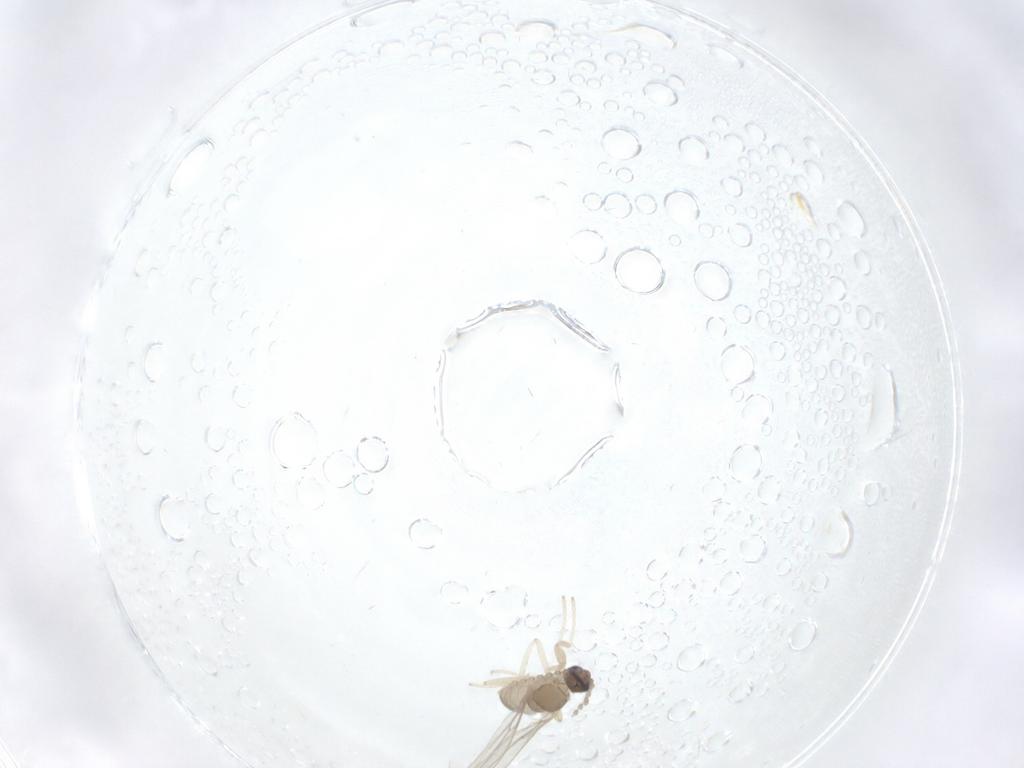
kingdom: Animalia
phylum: Arthropoda
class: Insecta
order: Diptera
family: Cecidomyiidae
